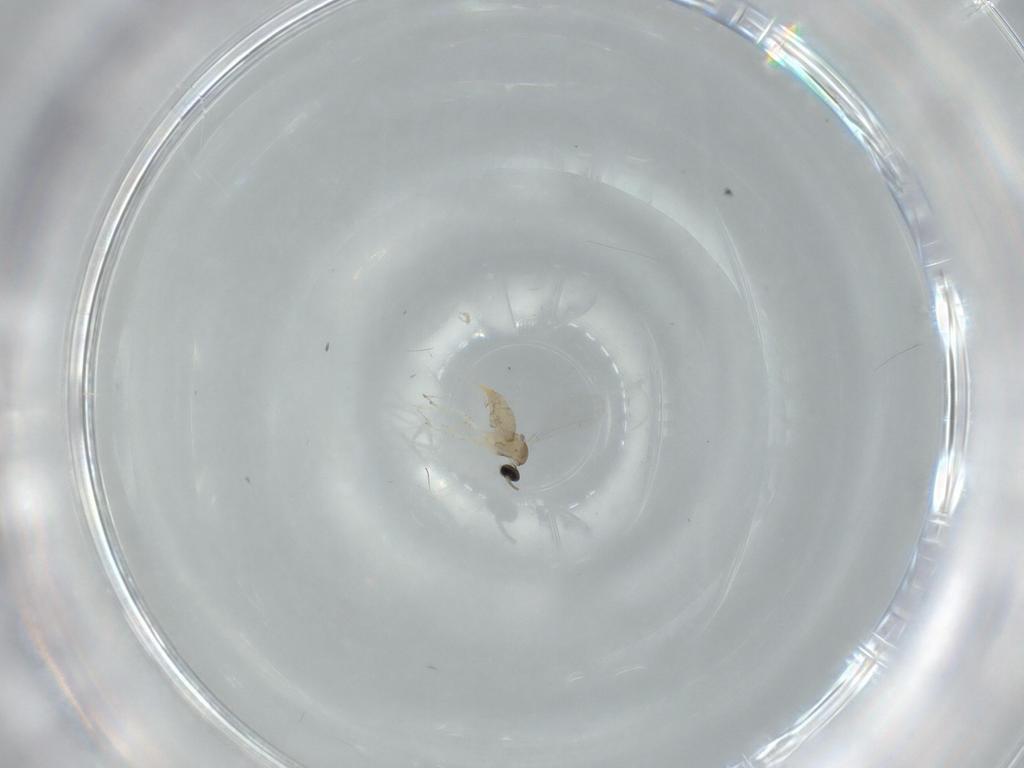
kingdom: Animalia
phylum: Arthropoda
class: Insecta
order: Diptera
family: Cecidomyiidae
